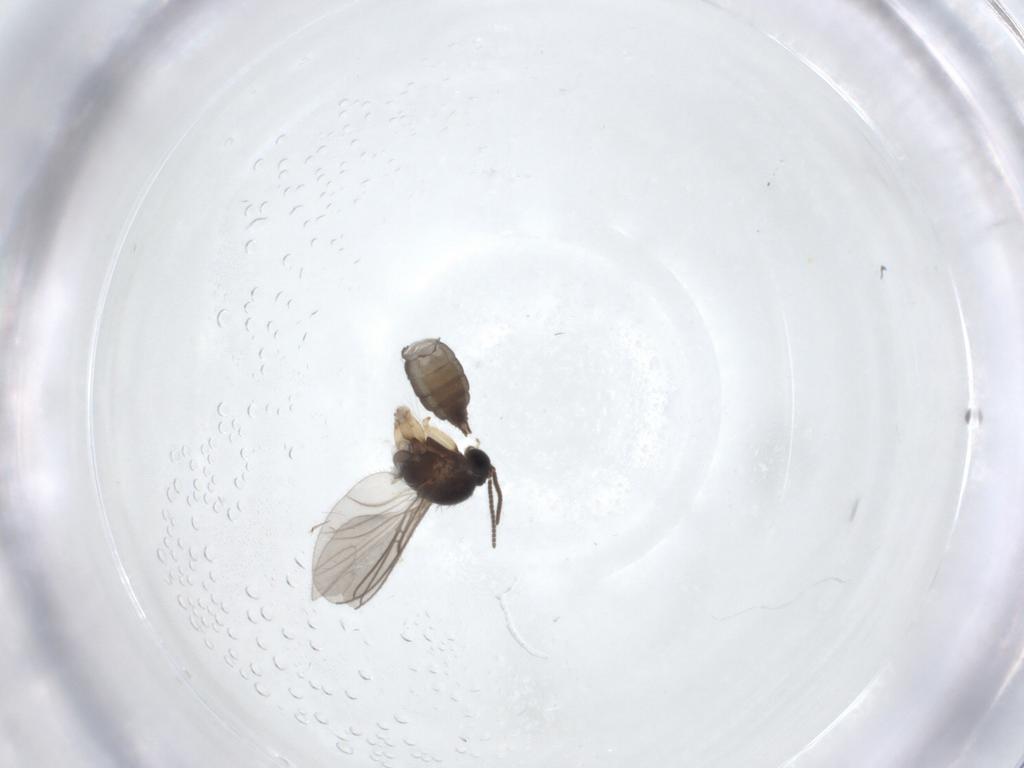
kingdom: Animalia
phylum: Arthropoda
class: Insecta
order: Diptera
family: Sciaridae
